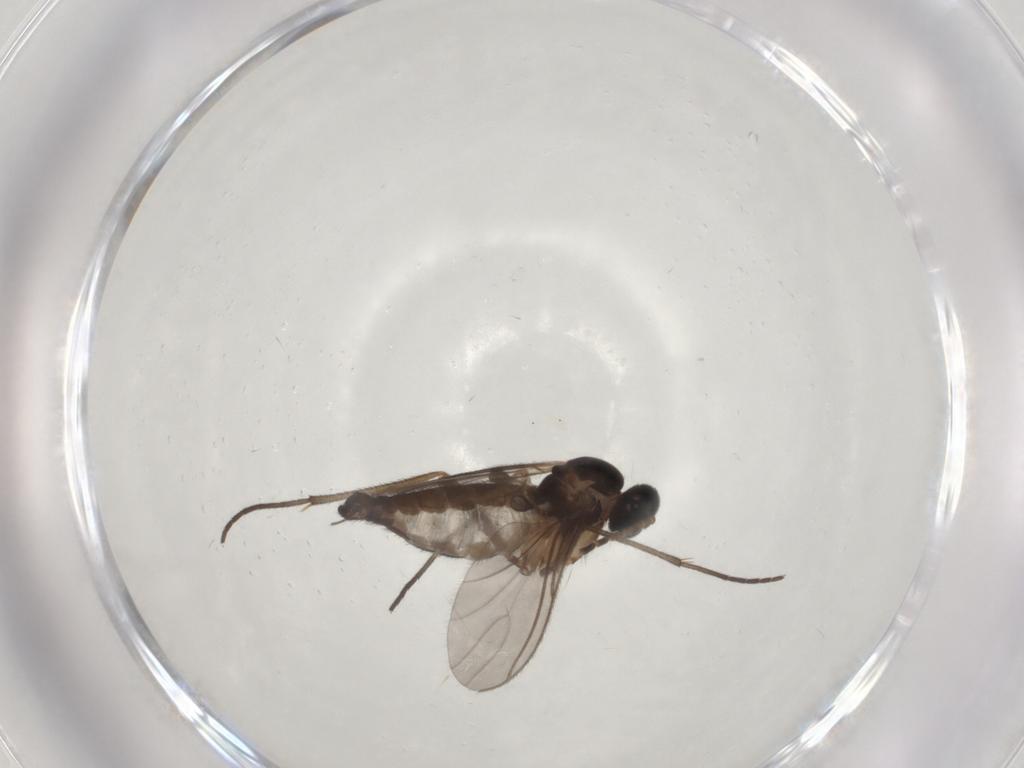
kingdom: Animalia
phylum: Arthropoda
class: Insecta
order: Diptera
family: Sciaridae
